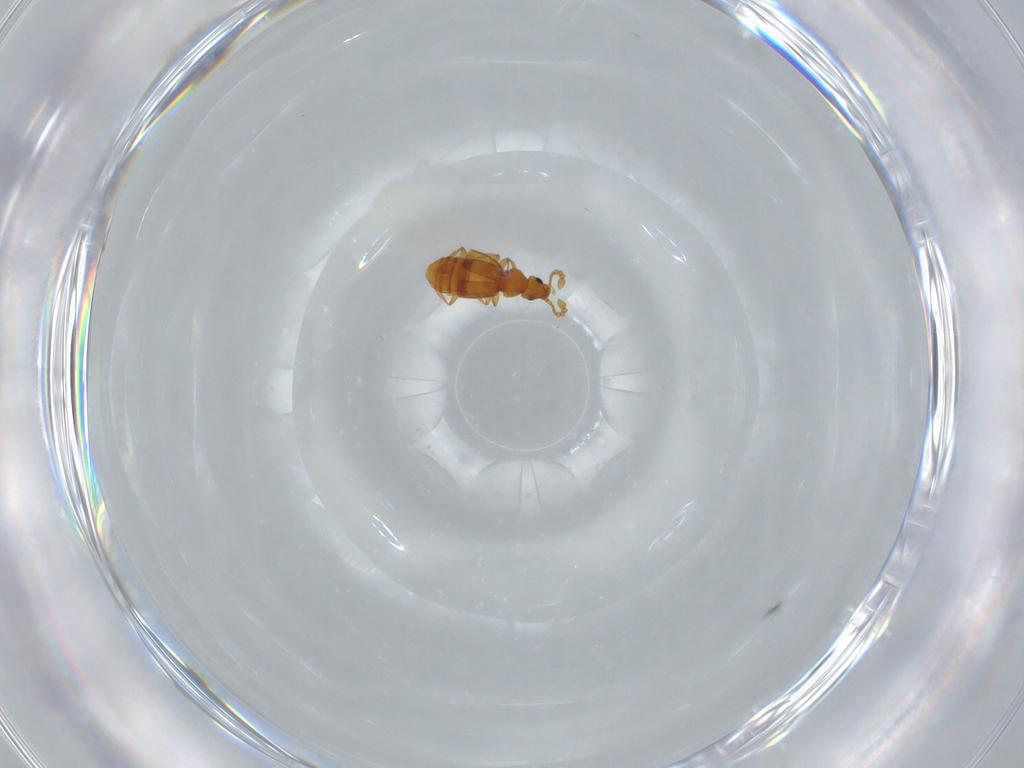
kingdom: Animalia
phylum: Arthropoda
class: Insecta
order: Coleoptera
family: Staphylinidae
